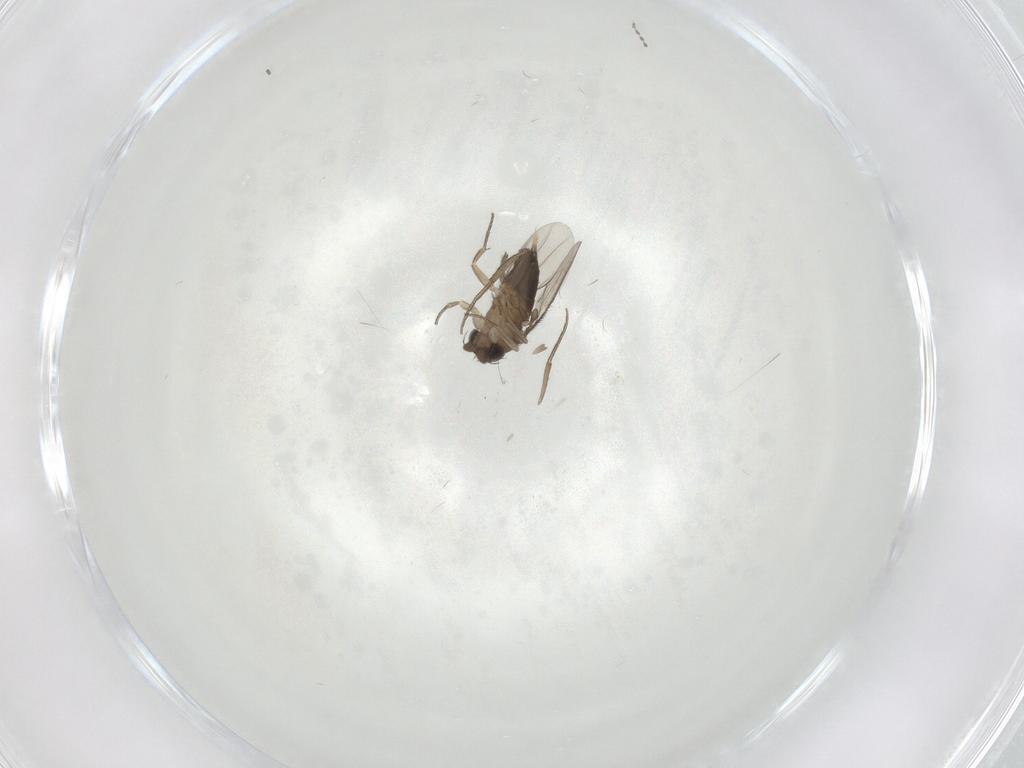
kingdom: Animalia
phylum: Arthropoda
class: Insecta
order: Diptera
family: Phoridae
